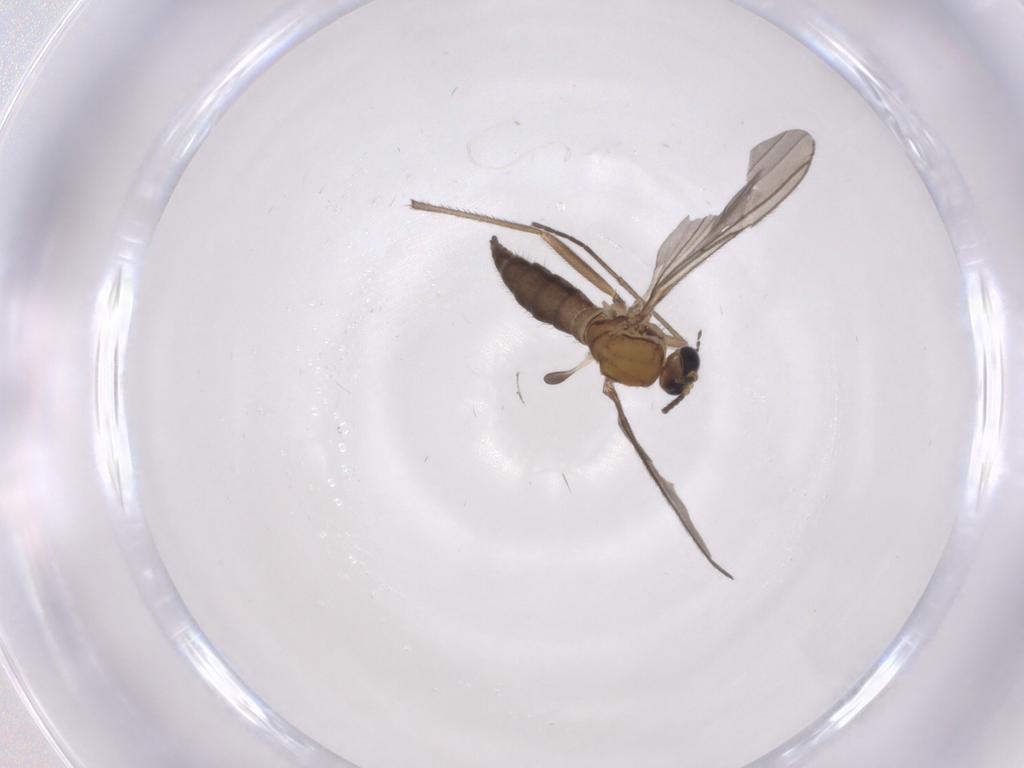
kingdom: Animalia
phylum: Arthropoda
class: Insecta
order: Diptera
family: Sciaridae
